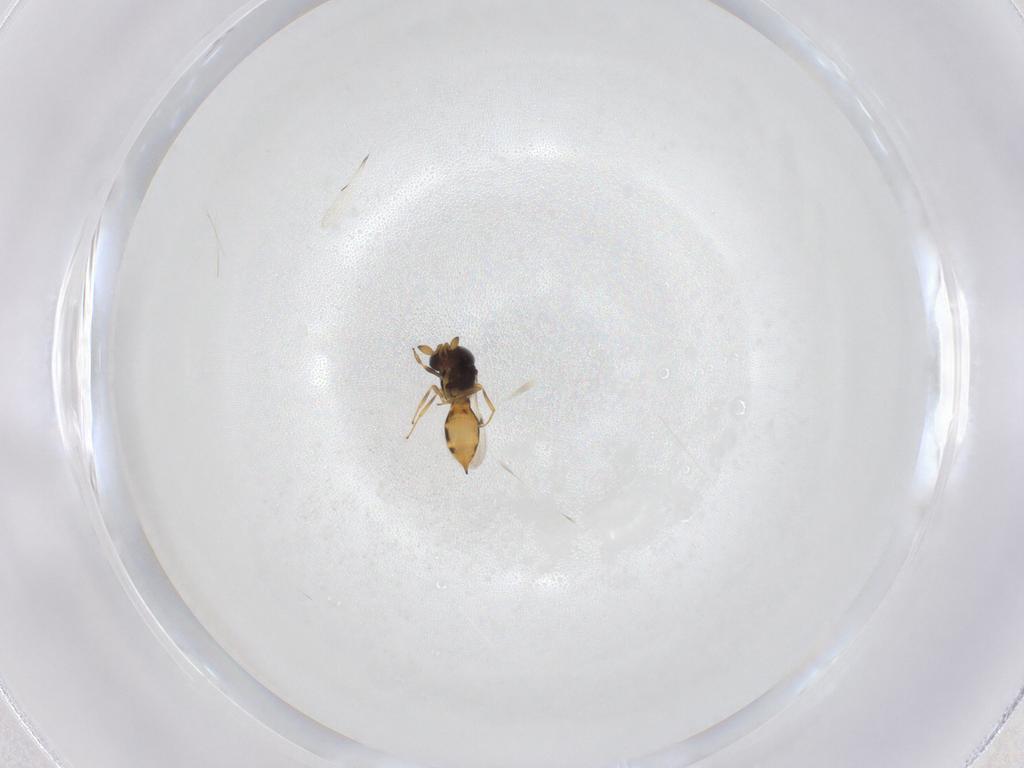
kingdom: Animalia
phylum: Arthropoda
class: Insecta
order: Hymenoptera
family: Scelionidae
